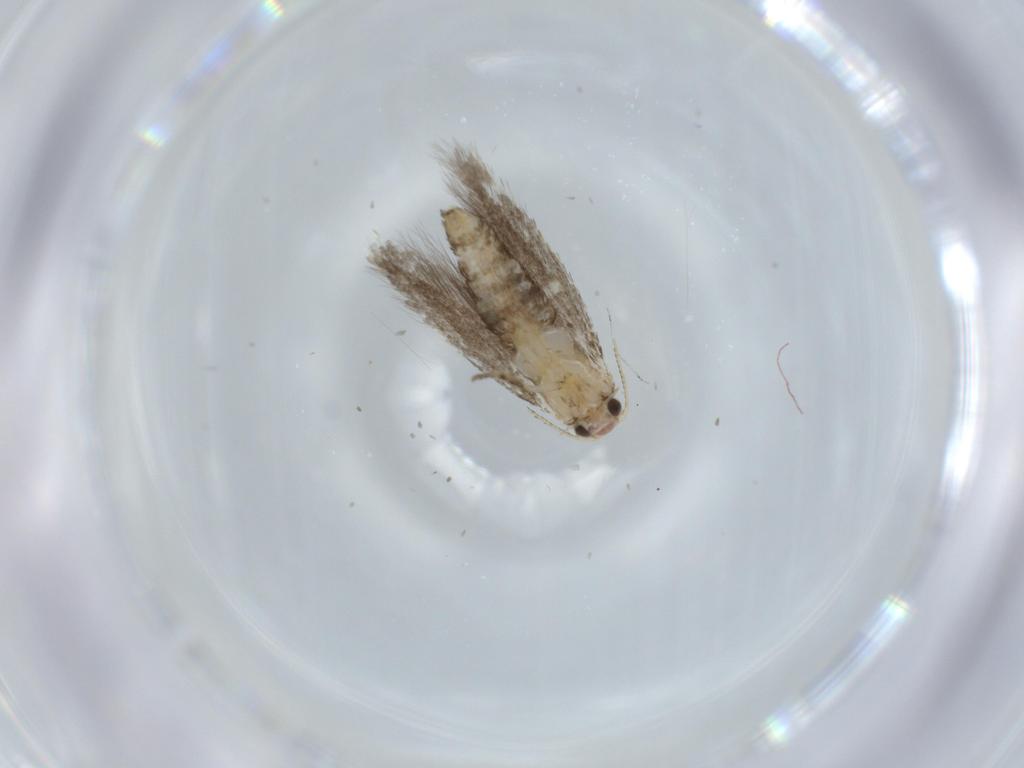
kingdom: Animalia
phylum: Arthropoda
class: Insecta
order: Lepidoptera
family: Tineidae
